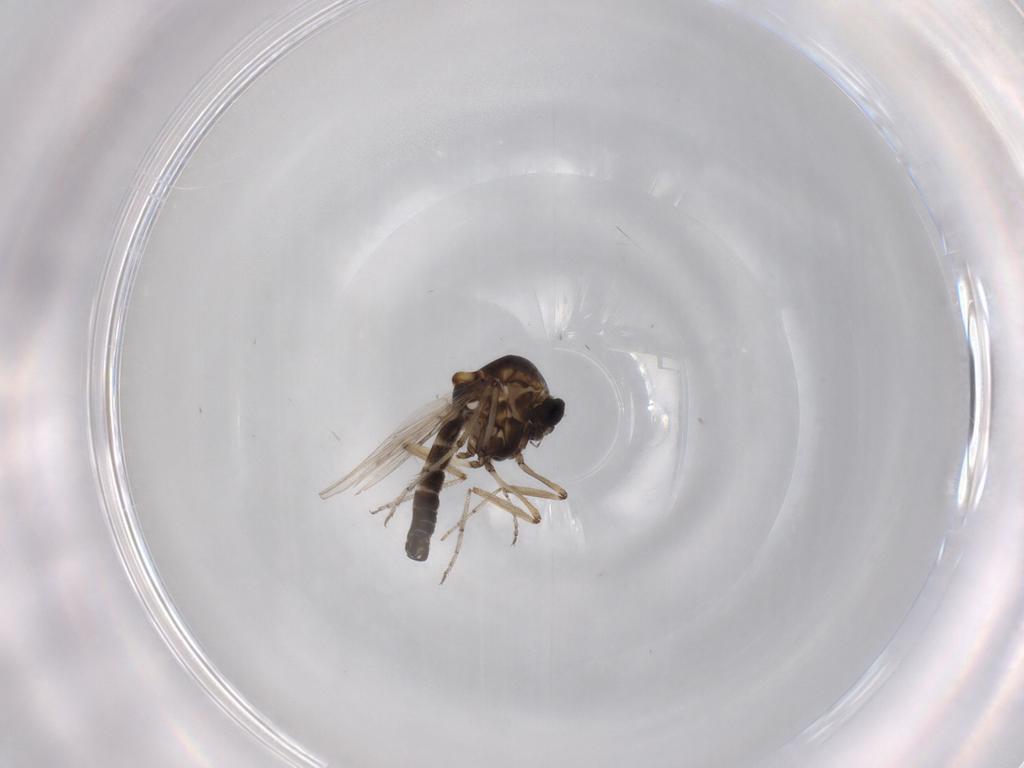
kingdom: Animalia
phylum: Arthropoda
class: Insecta
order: Diptera
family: Ceratopogonidae
